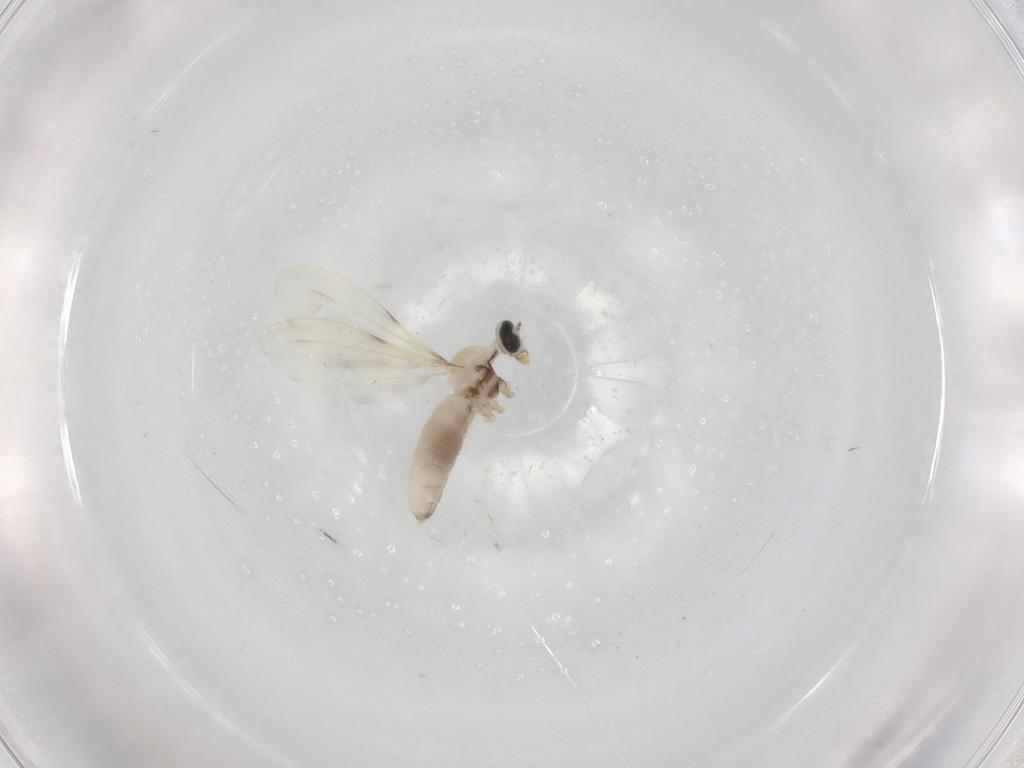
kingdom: Animalia
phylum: Arthropoda
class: Insecta
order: Diptera
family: Cecidomyiidae
